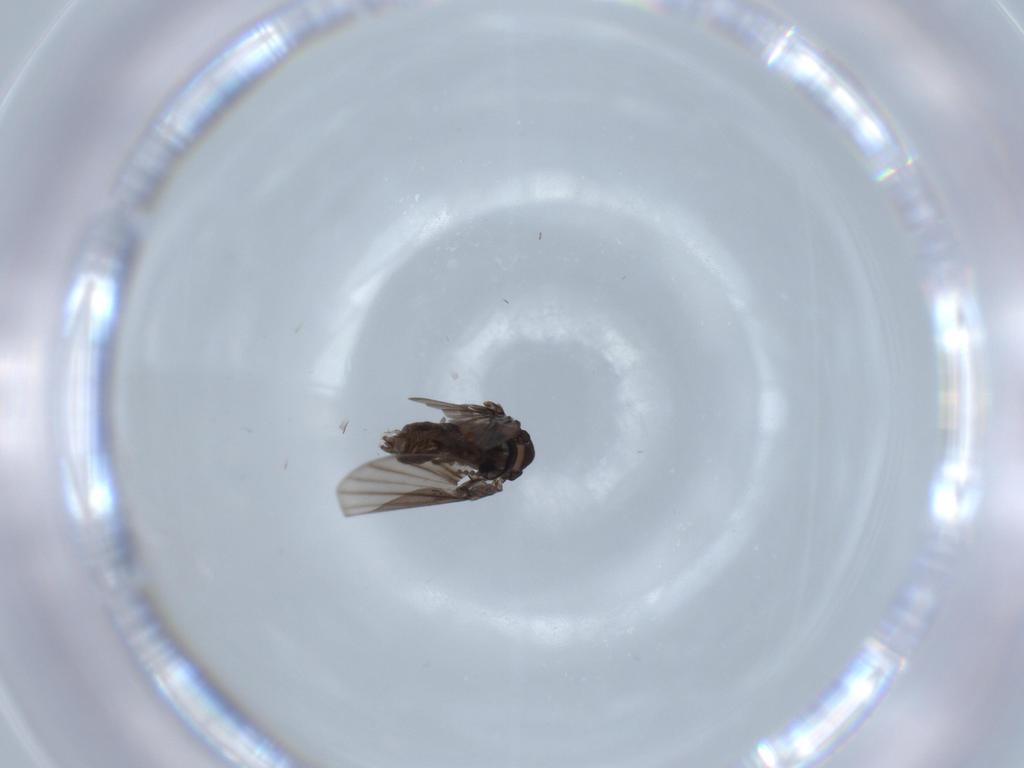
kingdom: Animalia
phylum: Arthropoda
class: Insecta
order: Diptera
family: Psychodidae
